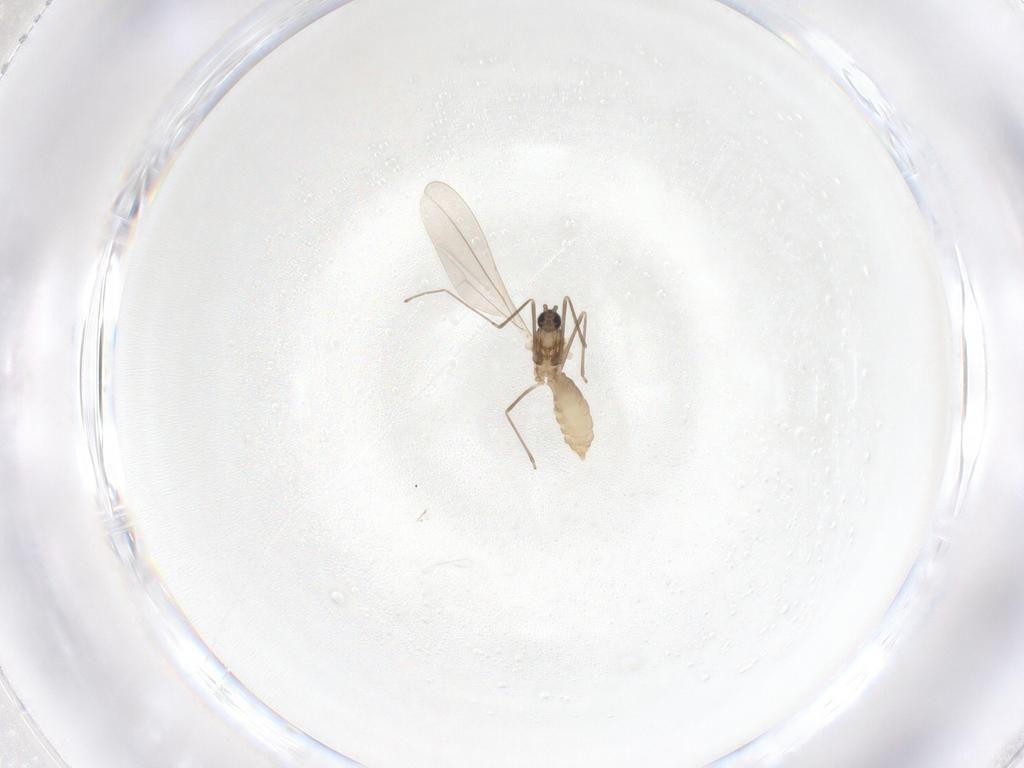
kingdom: Animalia
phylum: Arthropoda
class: Insecta
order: Diptera
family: Cecidomyiidae
